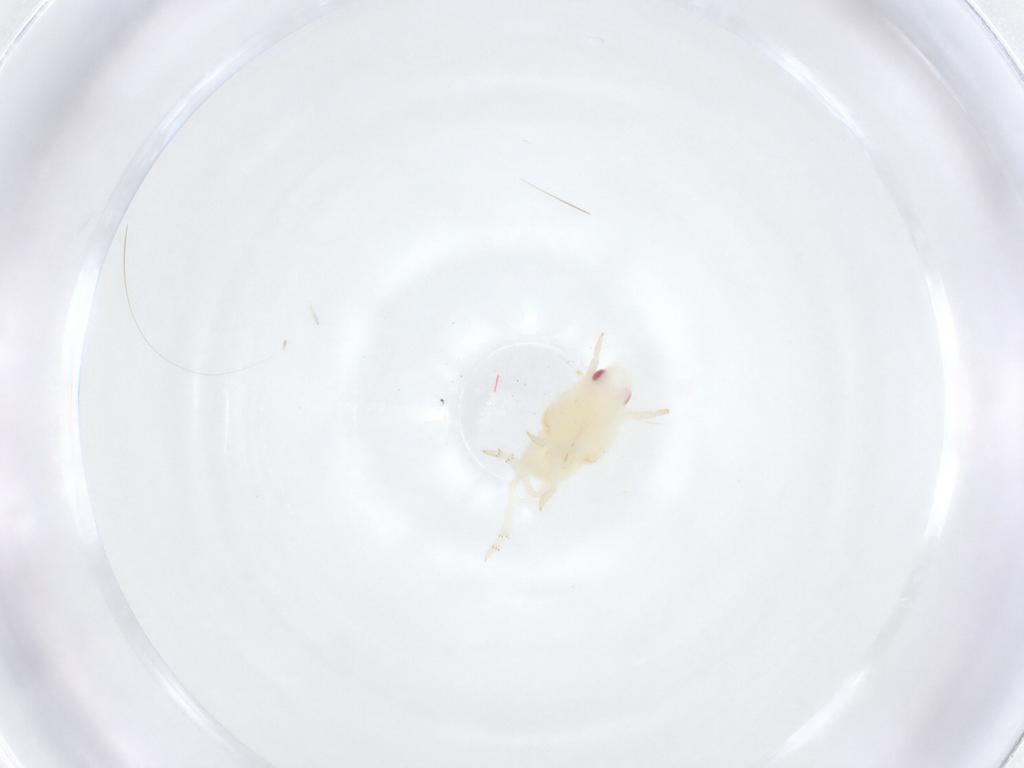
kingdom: Animalia
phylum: Arthropoda
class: Insecta
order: Hemiptera
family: Flatidae
